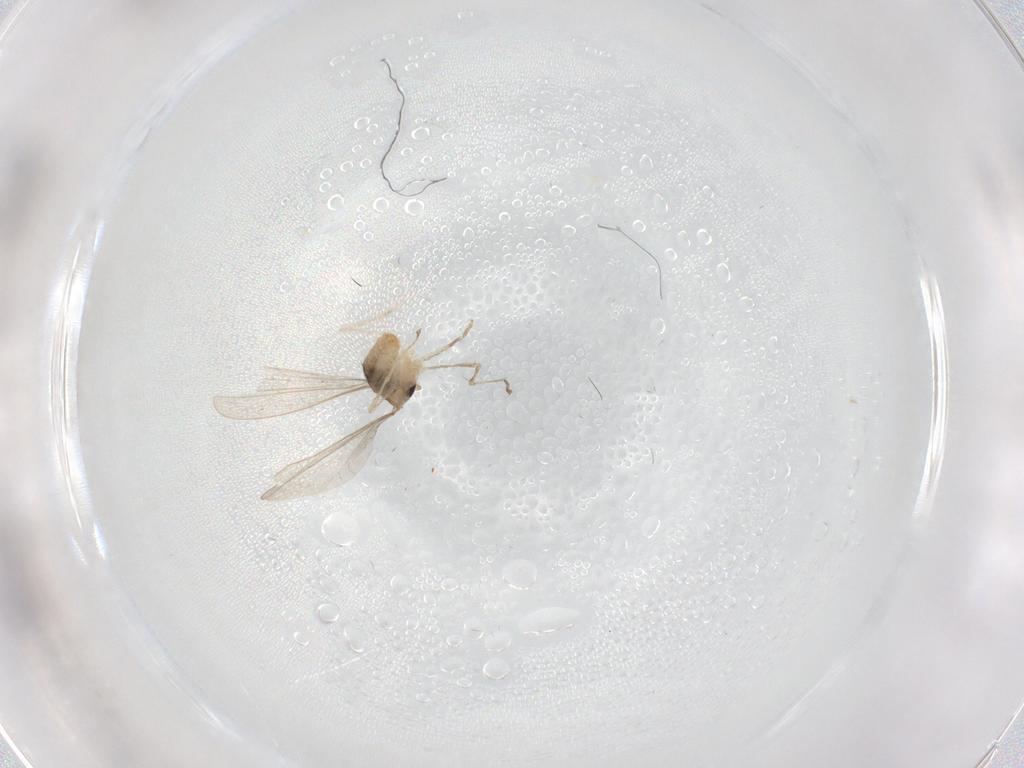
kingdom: Animalia
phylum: Arthropoda
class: Insecta
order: Diptera
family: Cecidomyiidae
